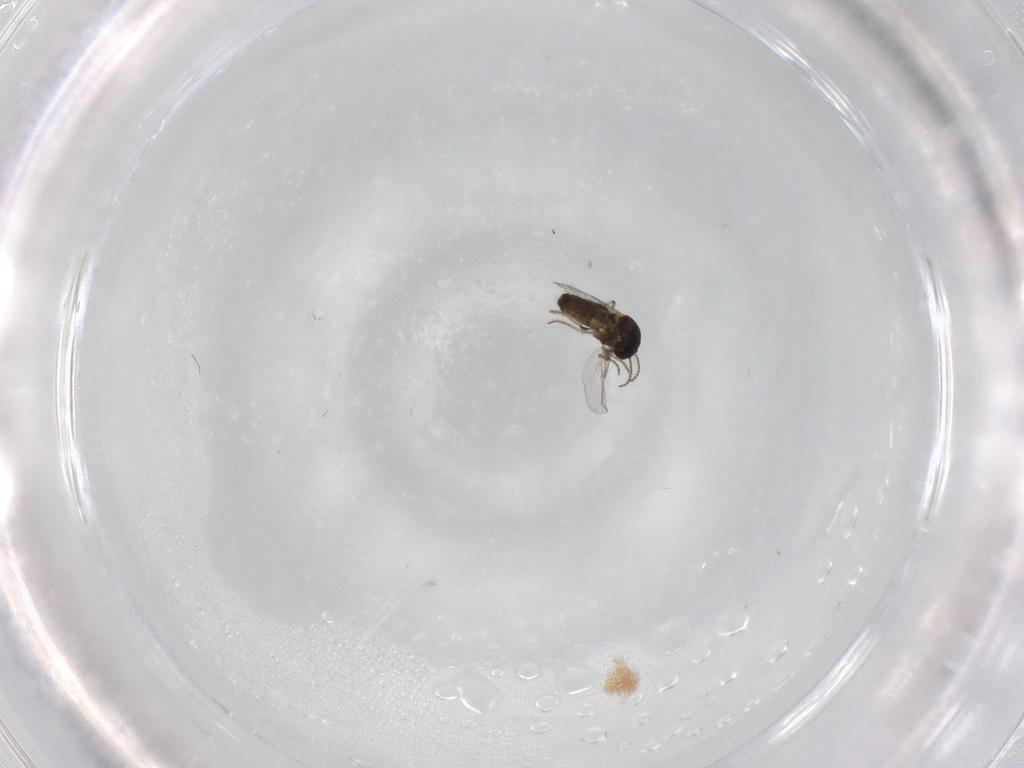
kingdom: Animalia
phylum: Arthropoda
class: Insecta
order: Diptera
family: Ceratopogonidae
